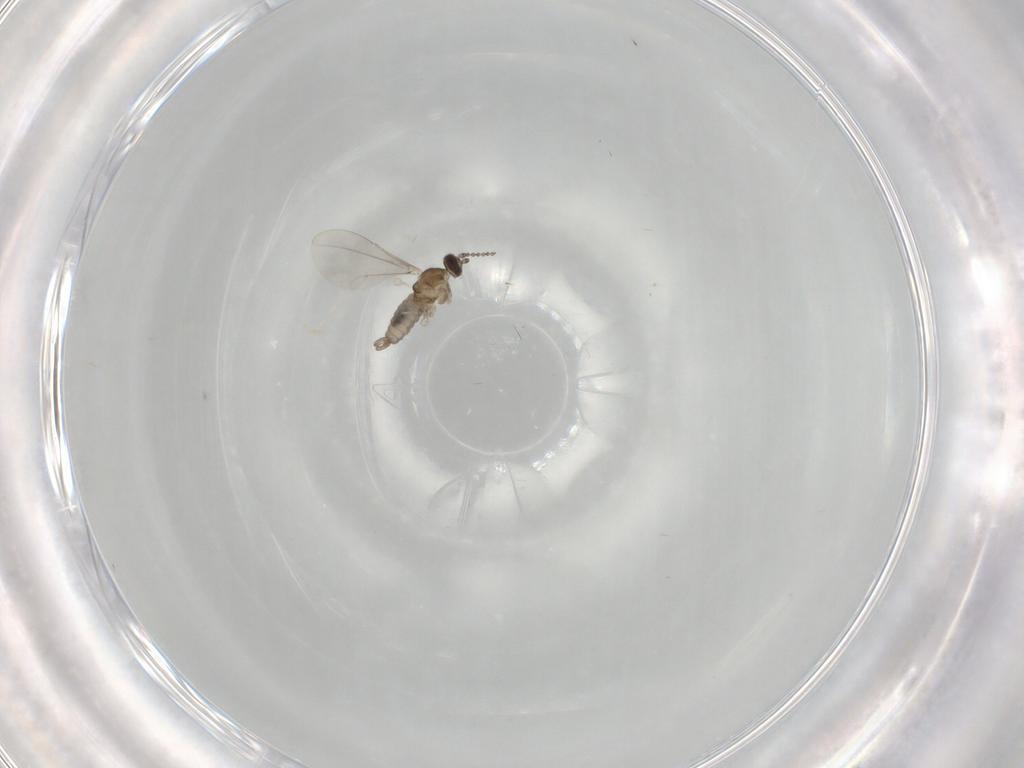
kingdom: Animalia
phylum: Arthropoda
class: Insecta
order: Diptera
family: Cecidomyiidae
